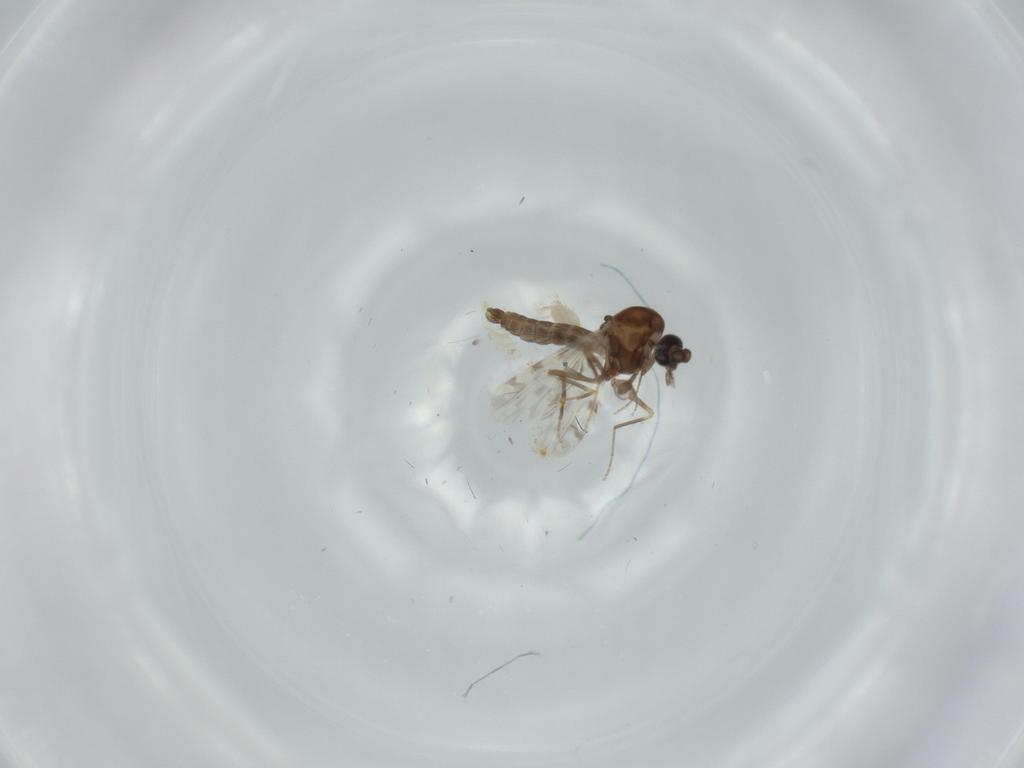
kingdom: Animalia
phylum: Arthropoda
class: Insecta
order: Diptera
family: Ceratopogonidae
